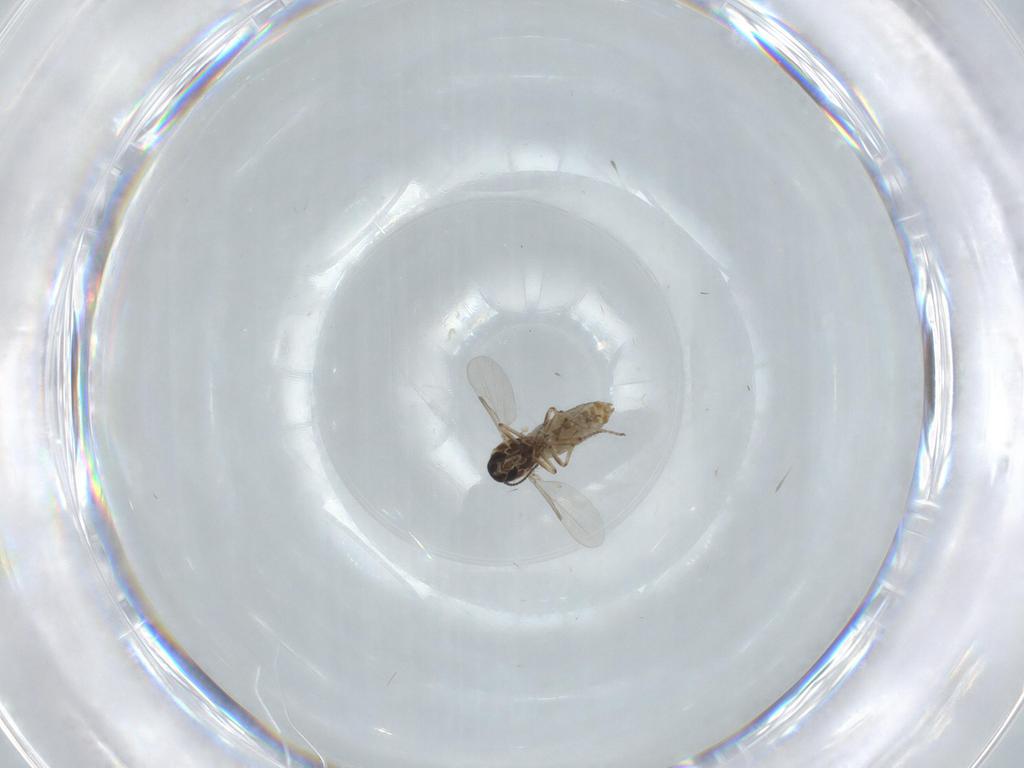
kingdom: Animalia
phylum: Arthropoda
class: Insecta
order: Diptera
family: Ceratopogonidae
